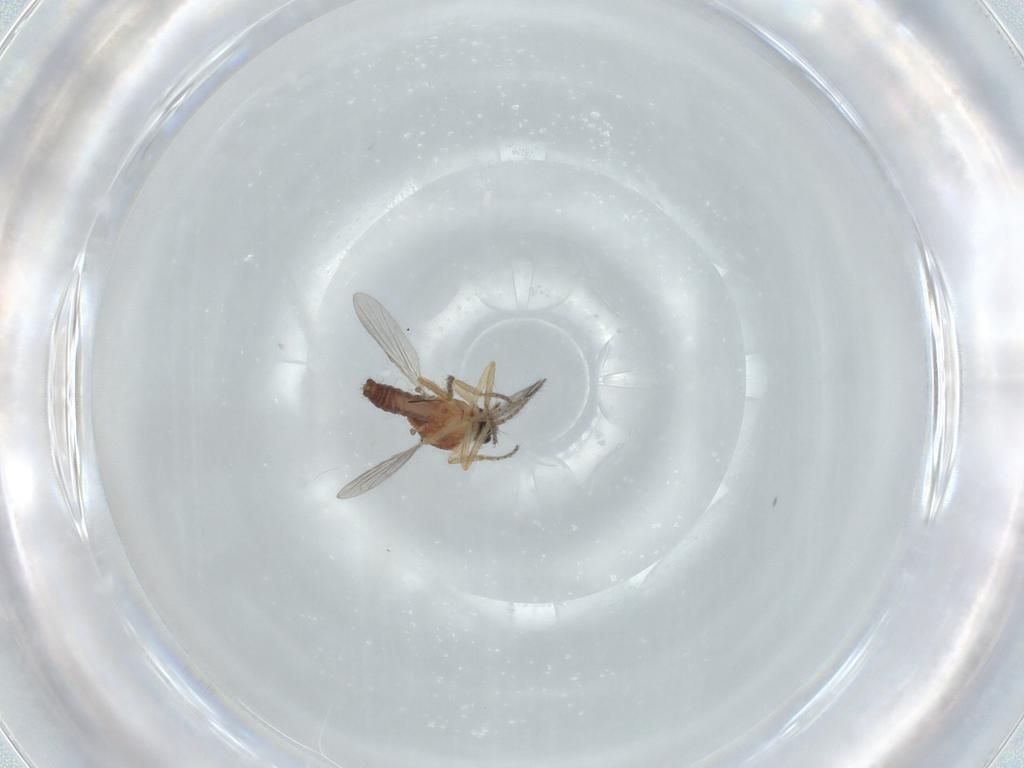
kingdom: Animalia
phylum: Arthropoda
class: Insecta
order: Diptera
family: Ceratopogonidae
